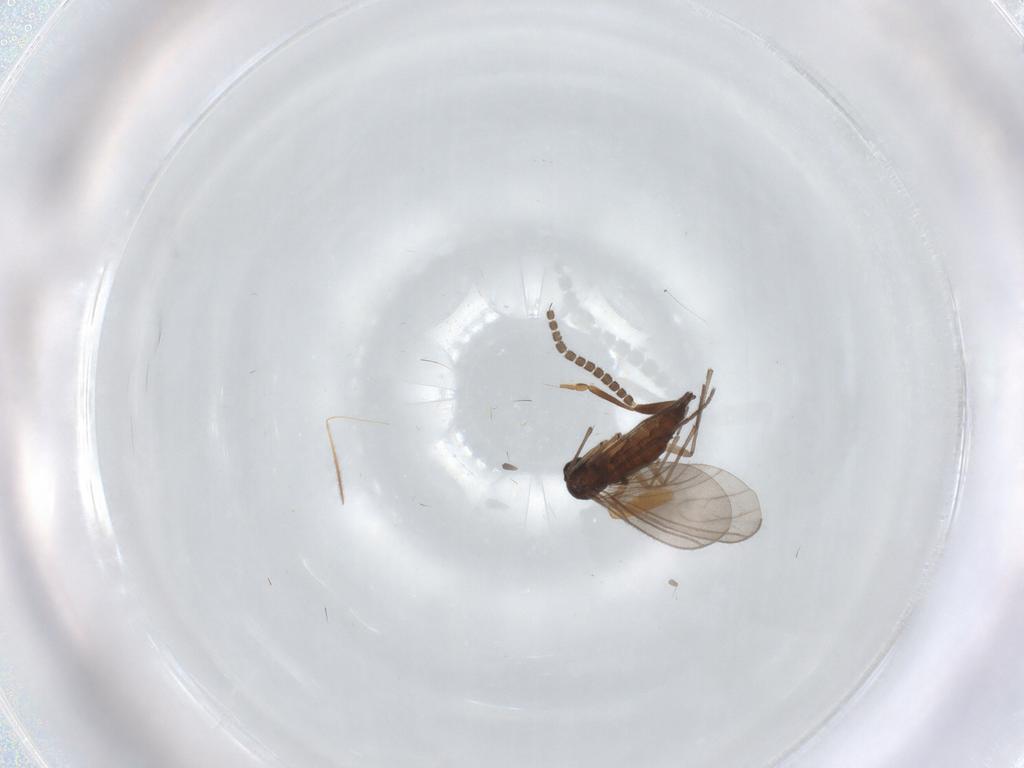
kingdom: Animalia
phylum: Arthropoda
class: Insecta
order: Diptera
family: Empididae
